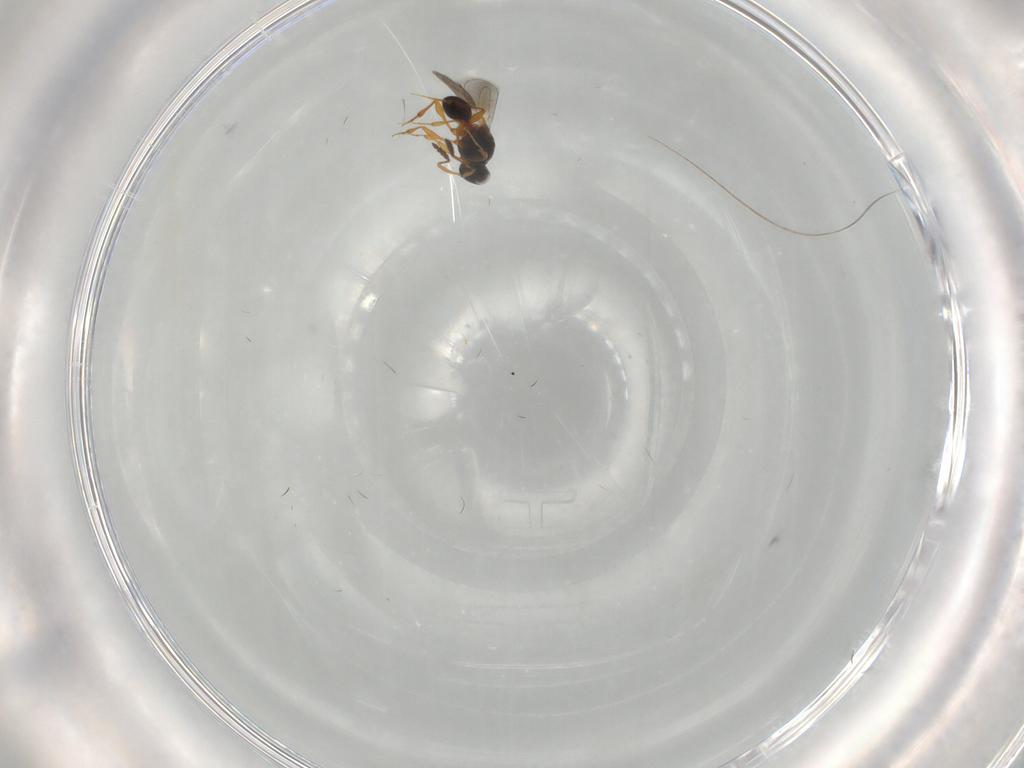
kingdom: Animalia
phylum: Arthropoda
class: Insecta
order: Hymenoptera
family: Platygastridae
